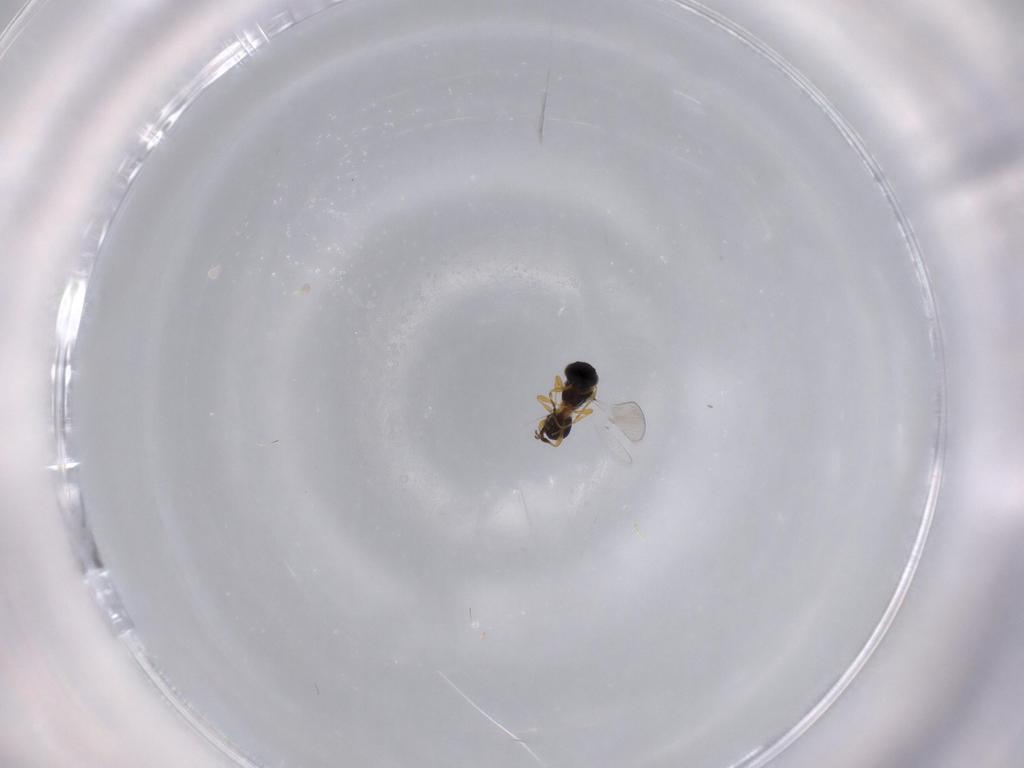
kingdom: Animalia
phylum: Arthropoda
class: Insecta
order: Hymenoptera
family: Platygastridae
